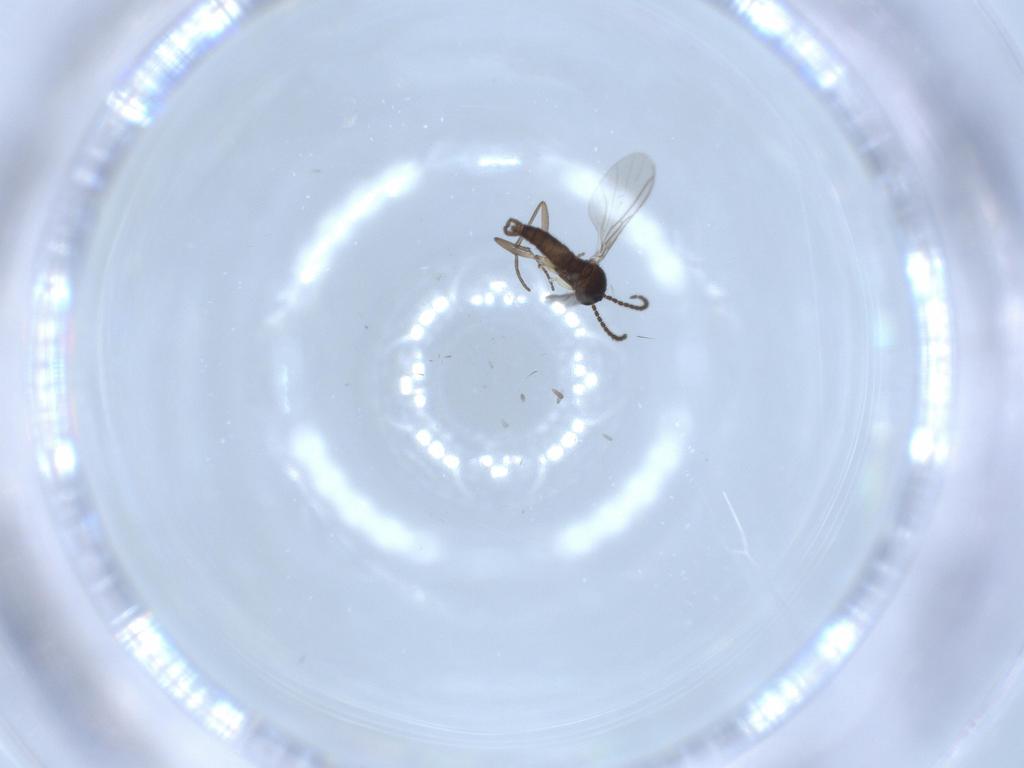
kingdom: Animalia
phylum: Arthropoda
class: Insecta
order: Diptera
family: Sciaridae
